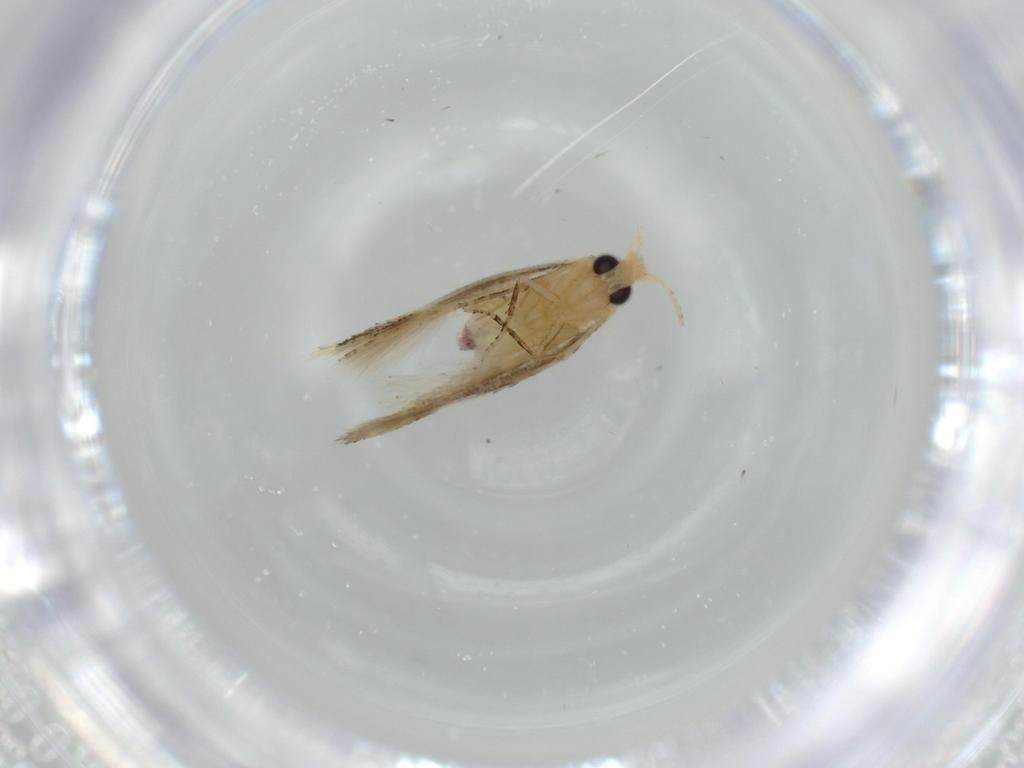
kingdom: Animalia
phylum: Arthropoda
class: Insecta
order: Lepidoptera
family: Bucculatricidae
